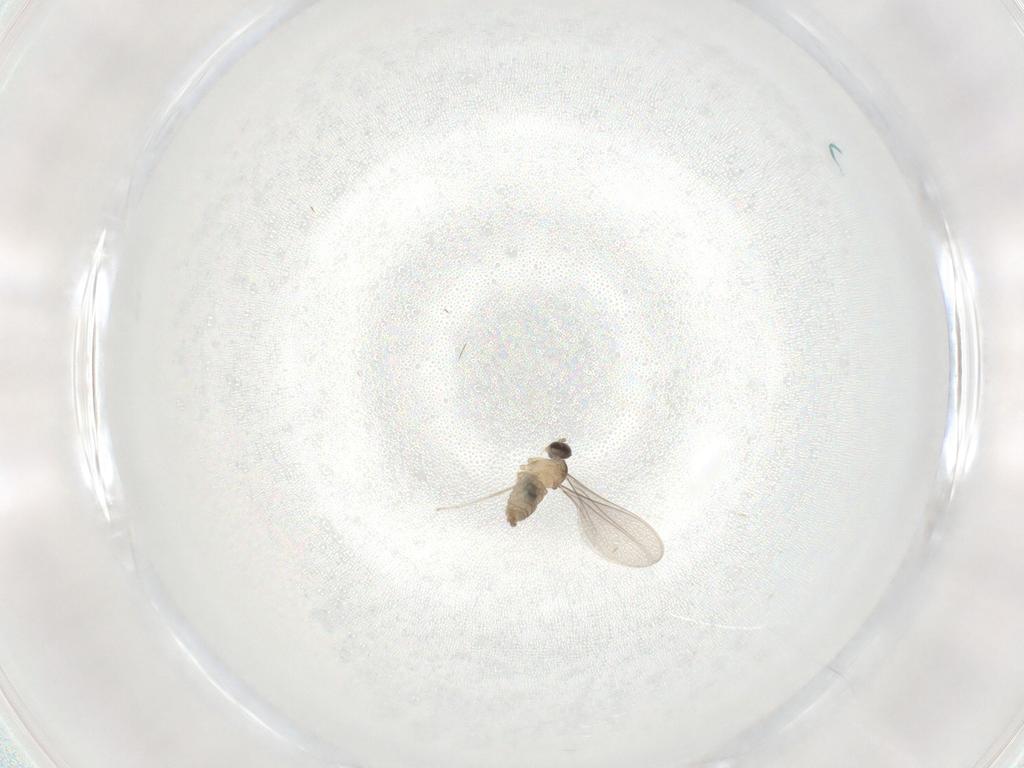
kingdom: Animalia
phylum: Arthropoda
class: Insecta
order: Diptera
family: Cecidomyiidae
